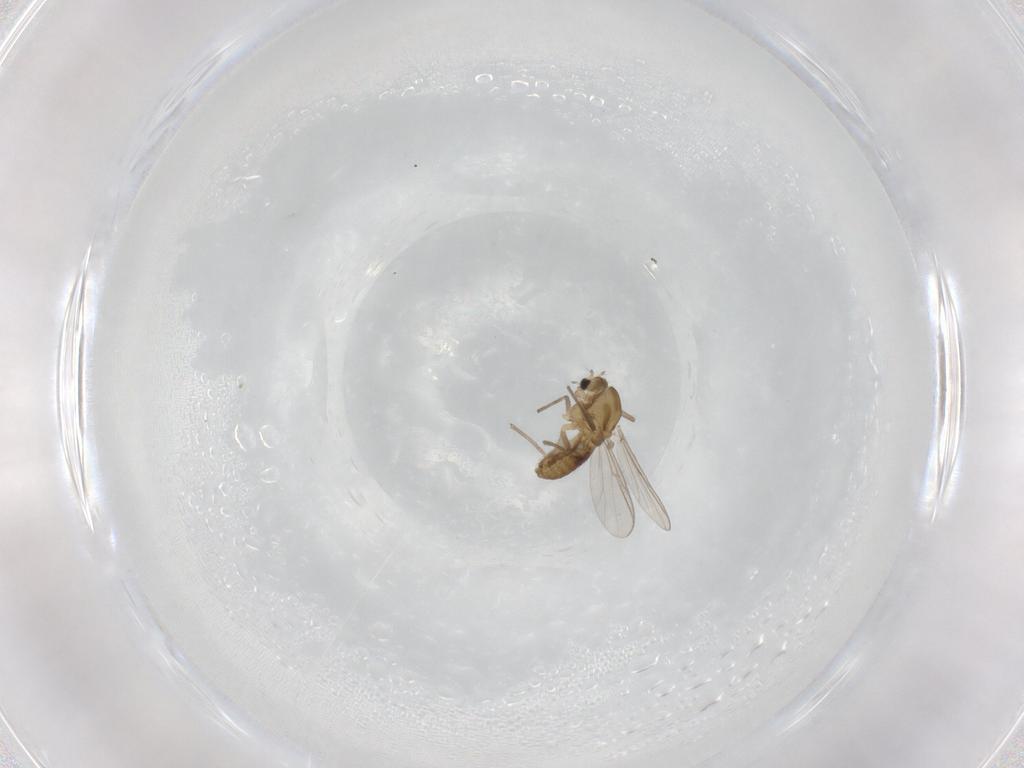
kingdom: Animalia
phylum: Arthropoda
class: Insecta
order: Diptera
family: Chironomidae
